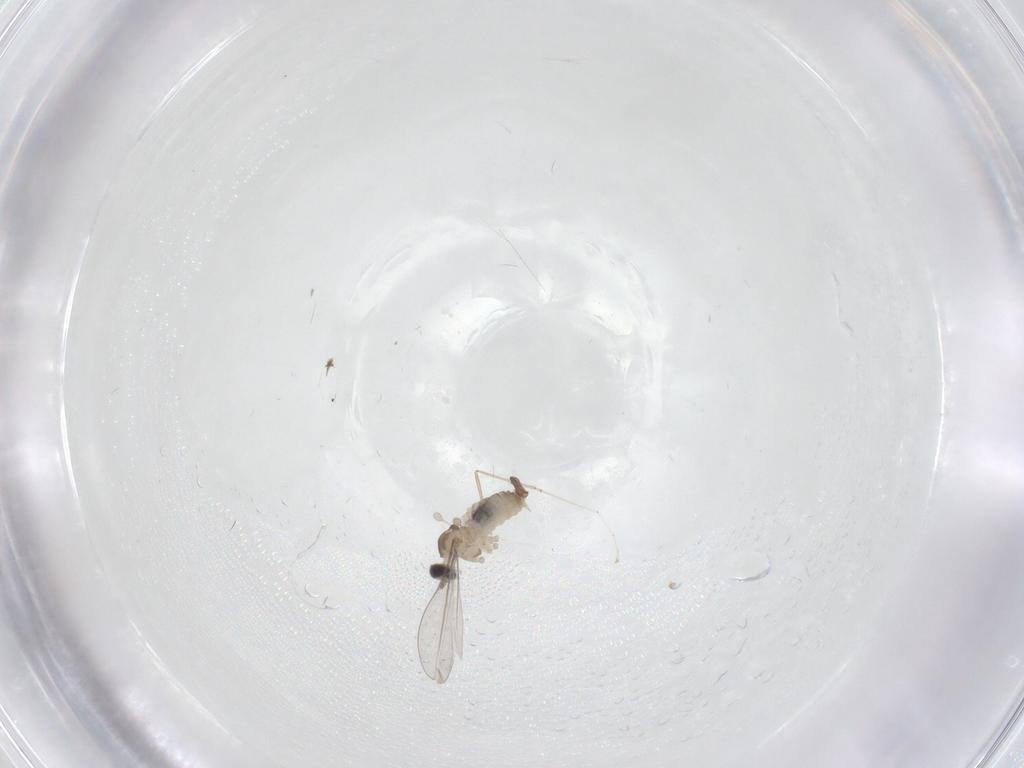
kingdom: Animalia
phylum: Arthropoda
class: Insecta
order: Diptera
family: Cecidomyiidae
